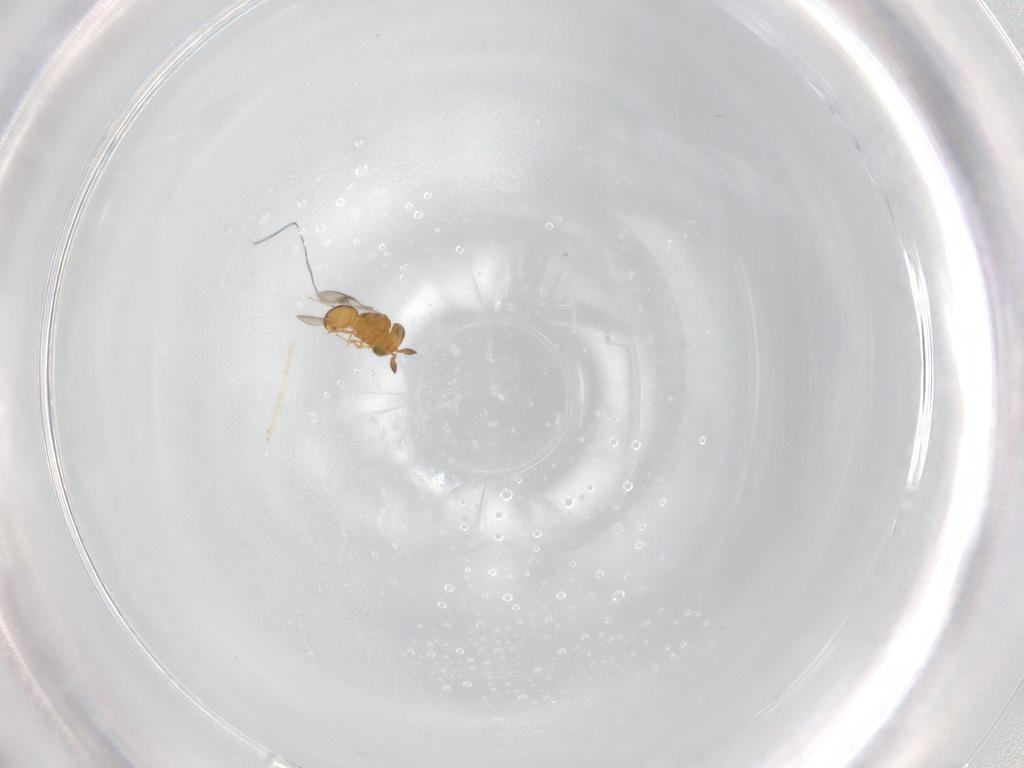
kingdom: Animalia
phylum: Arthropoda
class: Insecta
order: Hymenoptera
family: Scelionidae
